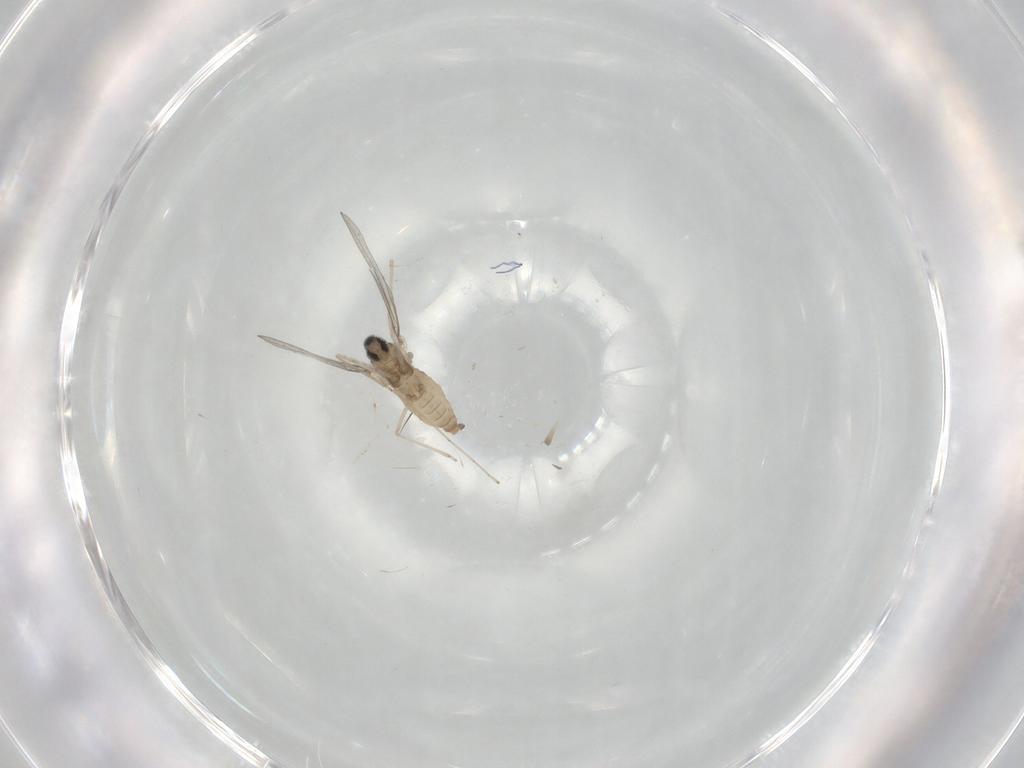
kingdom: Animalia
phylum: Arthropoda
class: Insecta
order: Diptera
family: Cecidomyiidae
